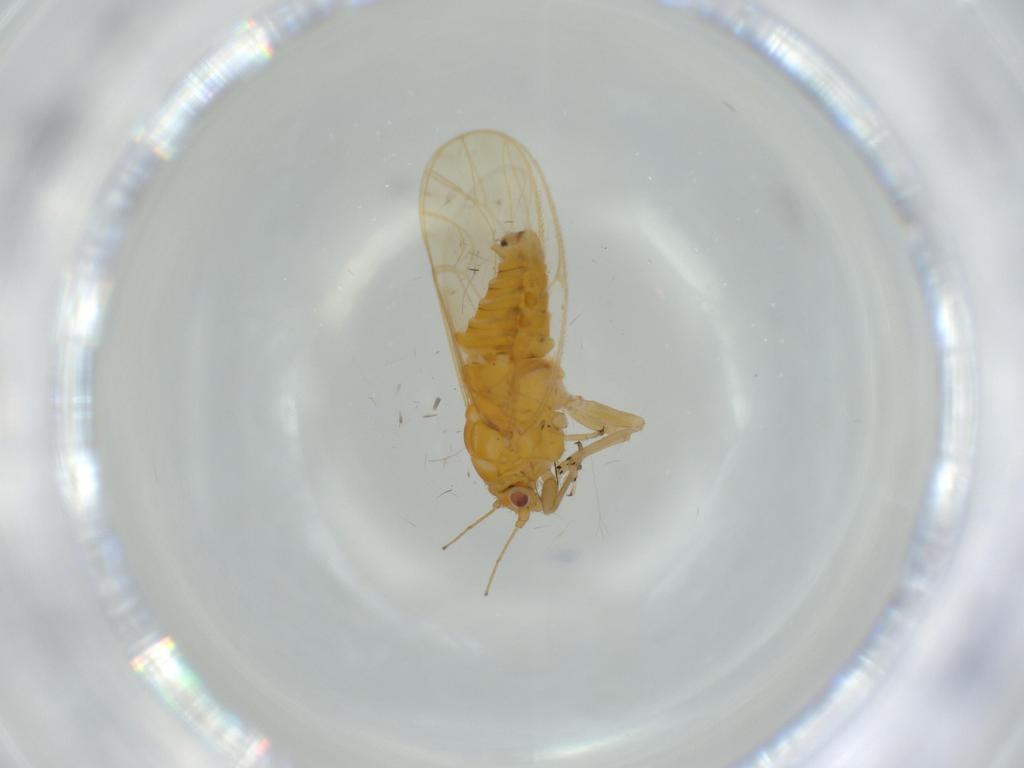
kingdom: Animalia
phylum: Arthropoda
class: Insecta
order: Hemiptera
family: Psyllidae
